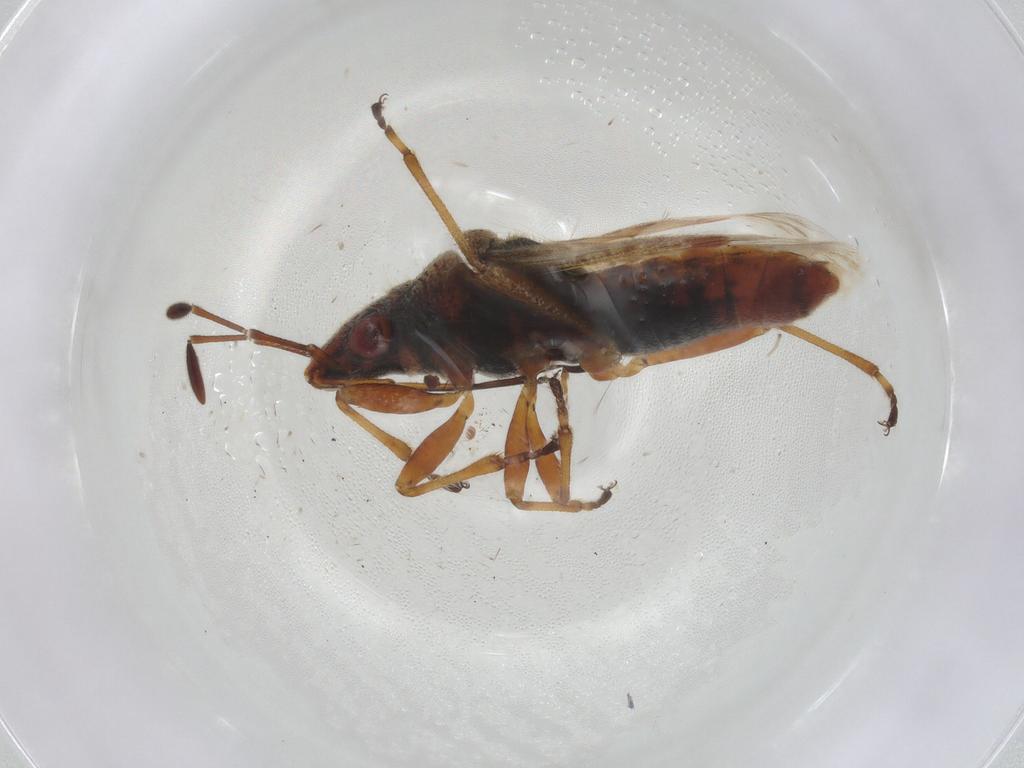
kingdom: Animalia
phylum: Arthropoda
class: Insecta
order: Hemiptera
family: Lygaeidae
